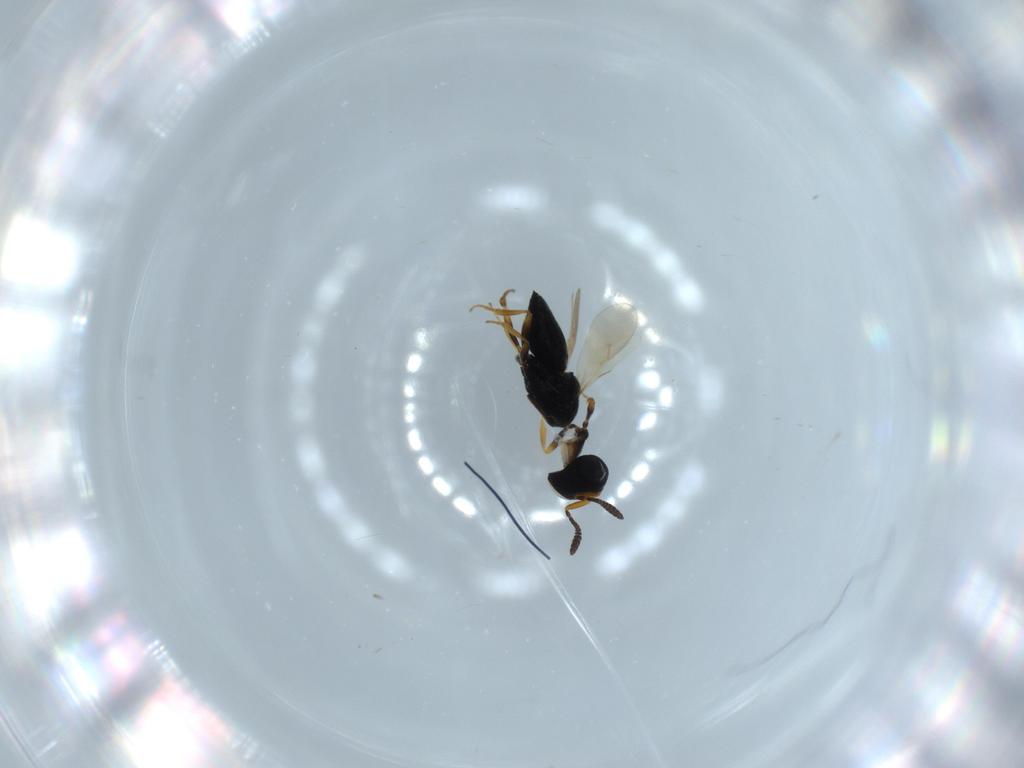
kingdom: Animalia
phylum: Arthropoda
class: Insecta
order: Hymenoptera
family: Scelionidae
